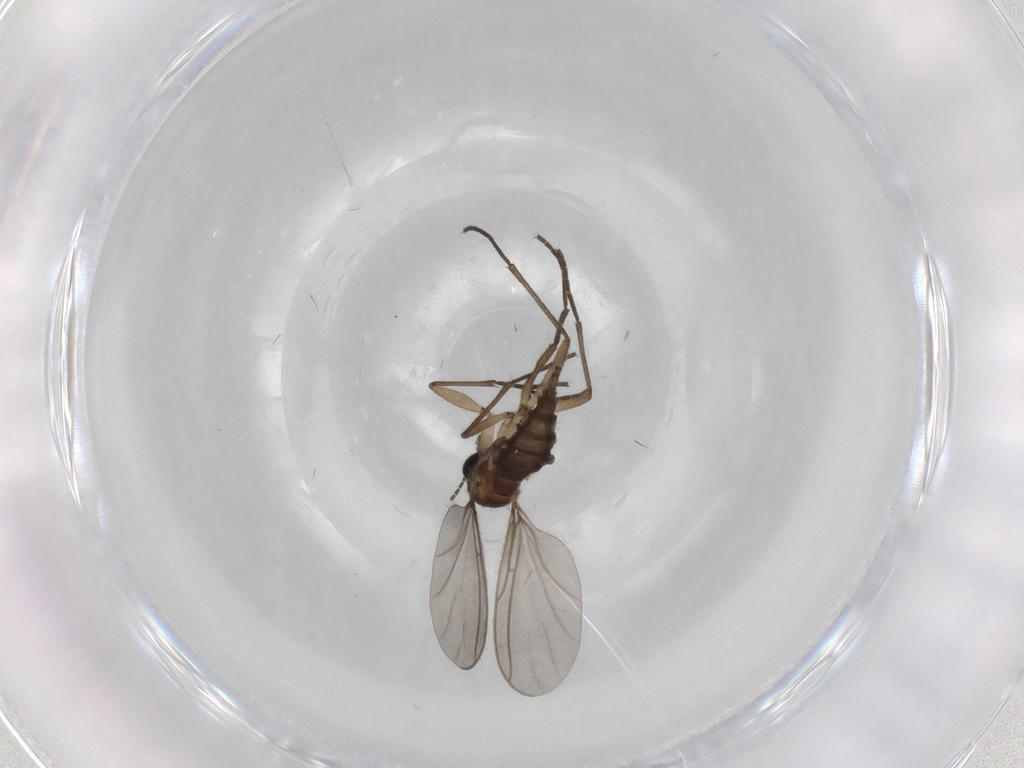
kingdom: Animalia
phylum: Arthropoda
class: Insecta
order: Diptera
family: Sciaridae
